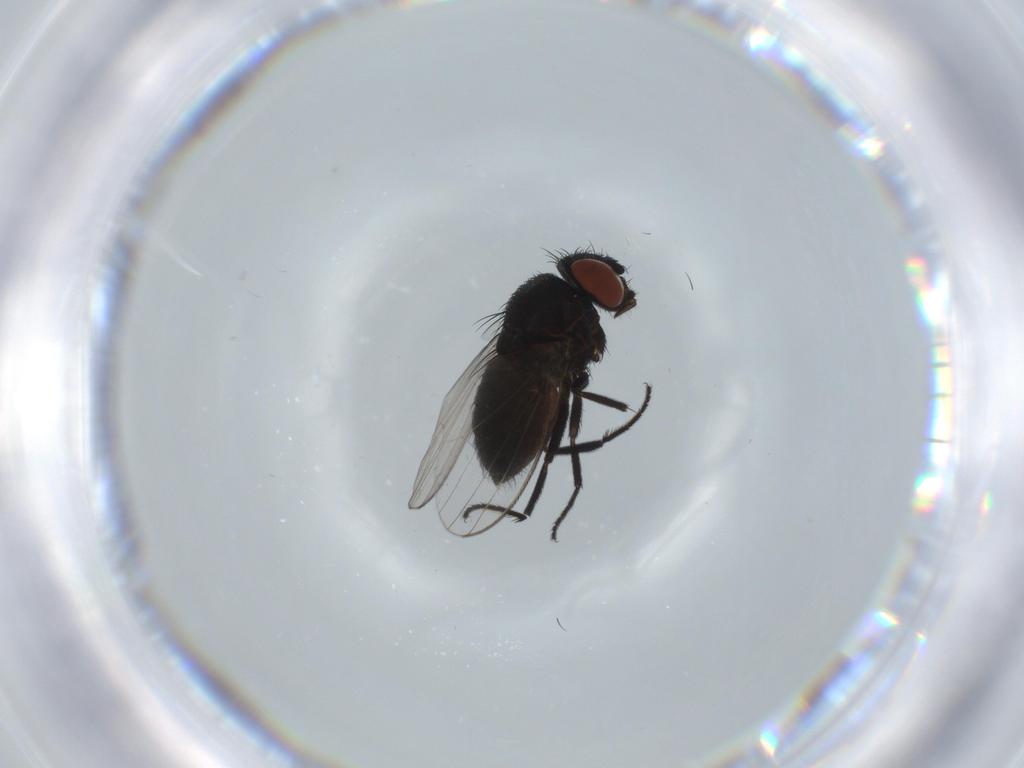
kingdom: Animalia
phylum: Arthropoda
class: Insecta
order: Diptera
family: Milichiidae
